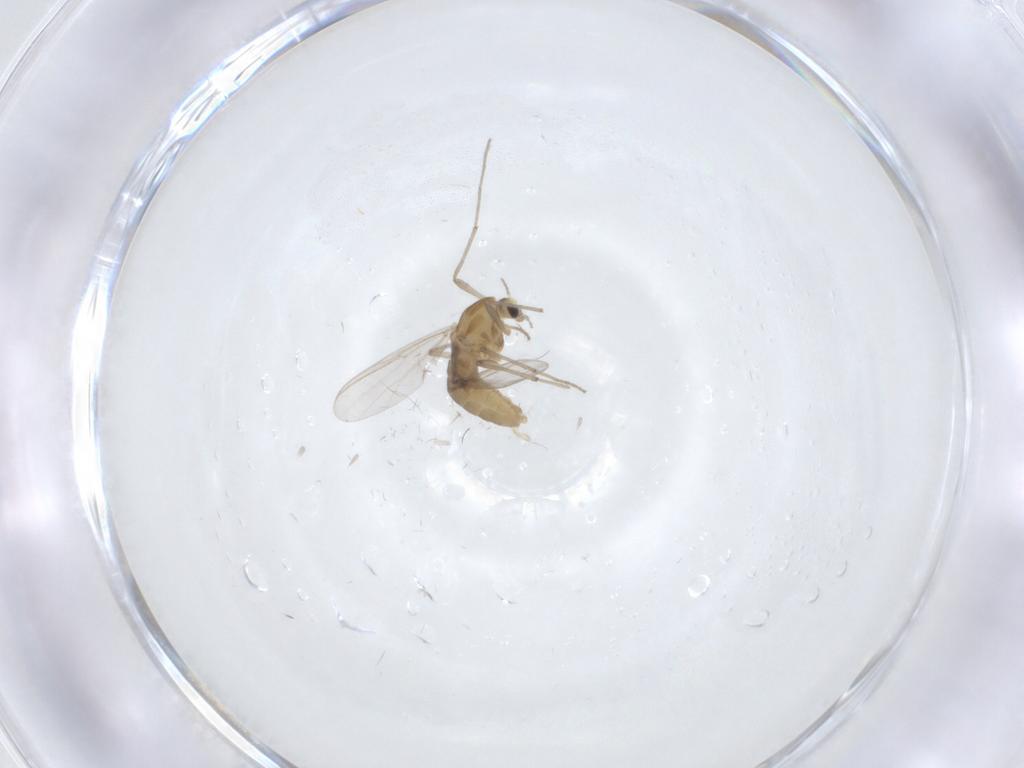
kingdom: Animalia
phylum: Arthropoda
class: Insecta
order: Diptera
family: Chironomidae
